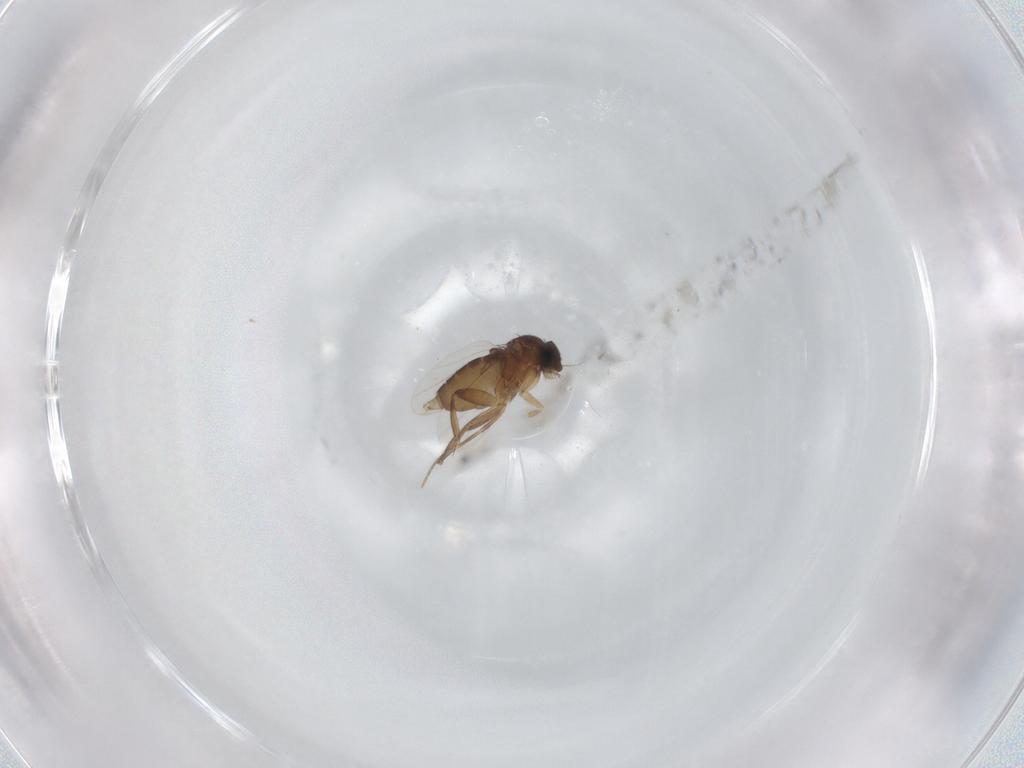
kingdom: Animalia
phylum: Arthropoda
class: Insecta
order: Diptera
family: Phoridae
